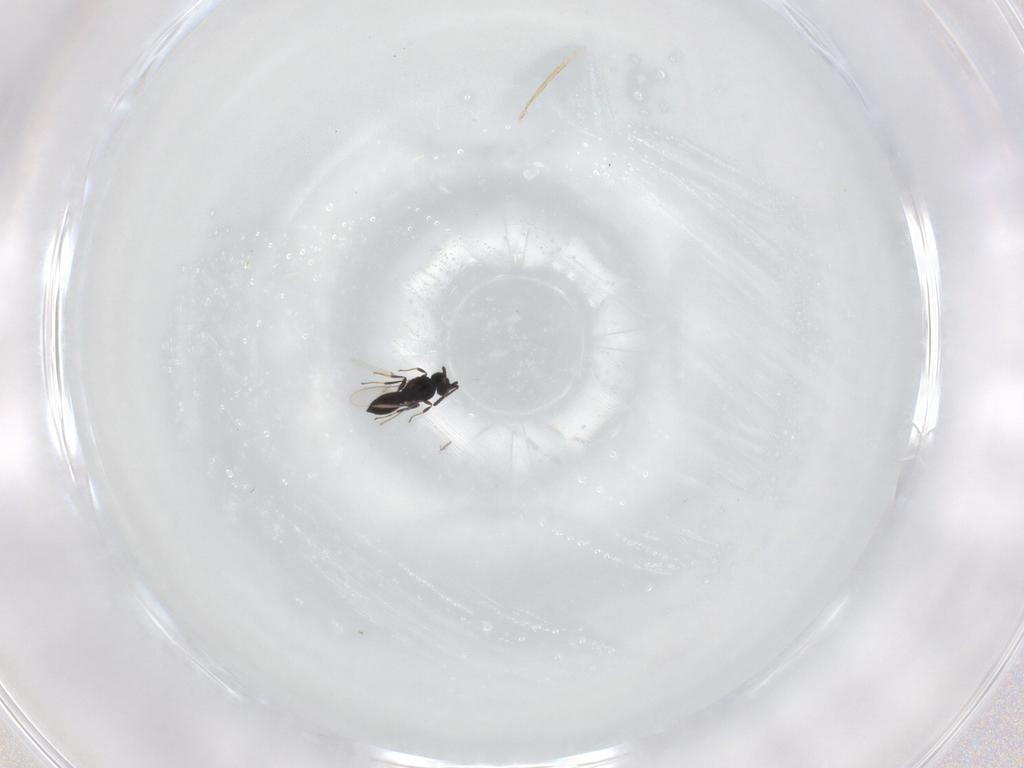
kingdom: Animalia
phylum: Arthropoda
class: Insecta
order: Hymenoptera
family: Scelionidae
